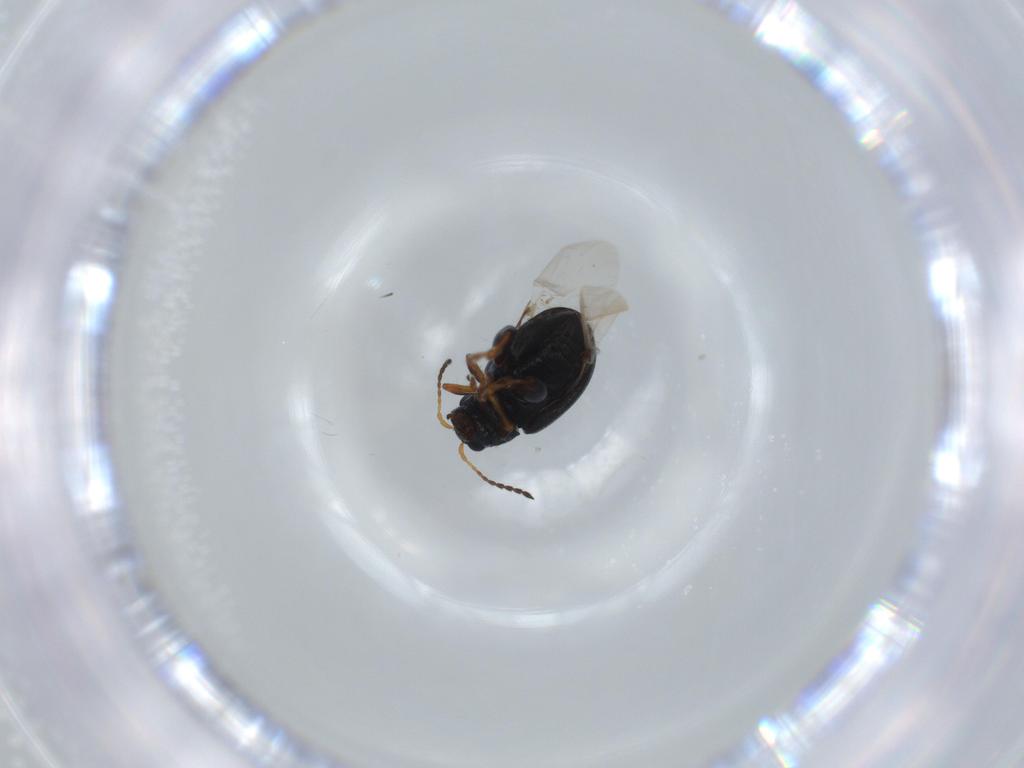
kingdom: Animalia
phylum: Arthropoda
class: Insecta
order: Coleoptera
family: Chrysomelidae
